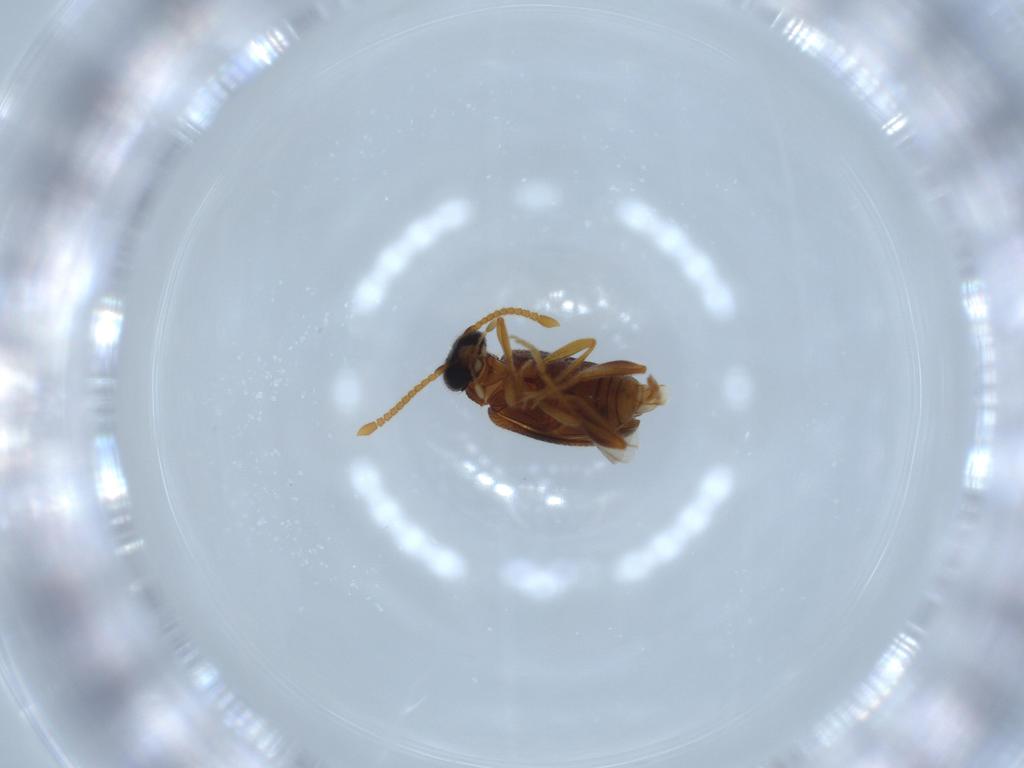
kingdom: Animalia
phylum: Arthropoda
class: Insecta
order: Coleoptera
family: Aderidae
